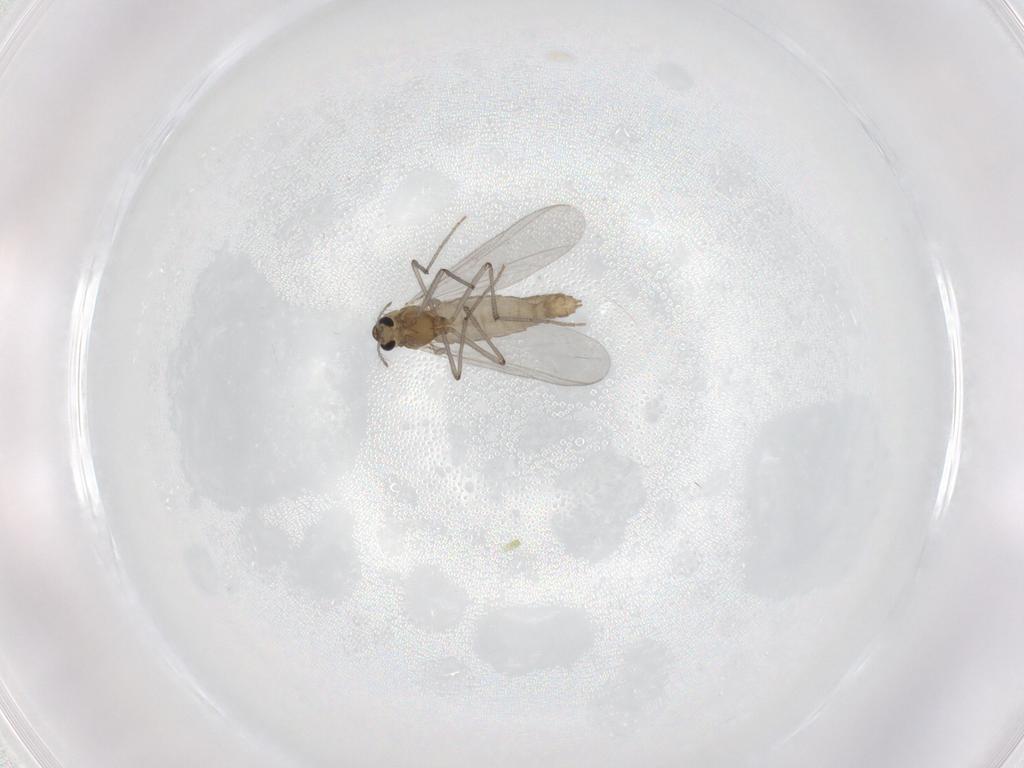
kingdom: Animalia
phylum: Arthropoda
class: Insecta
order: Diptera
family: Chironomidae
